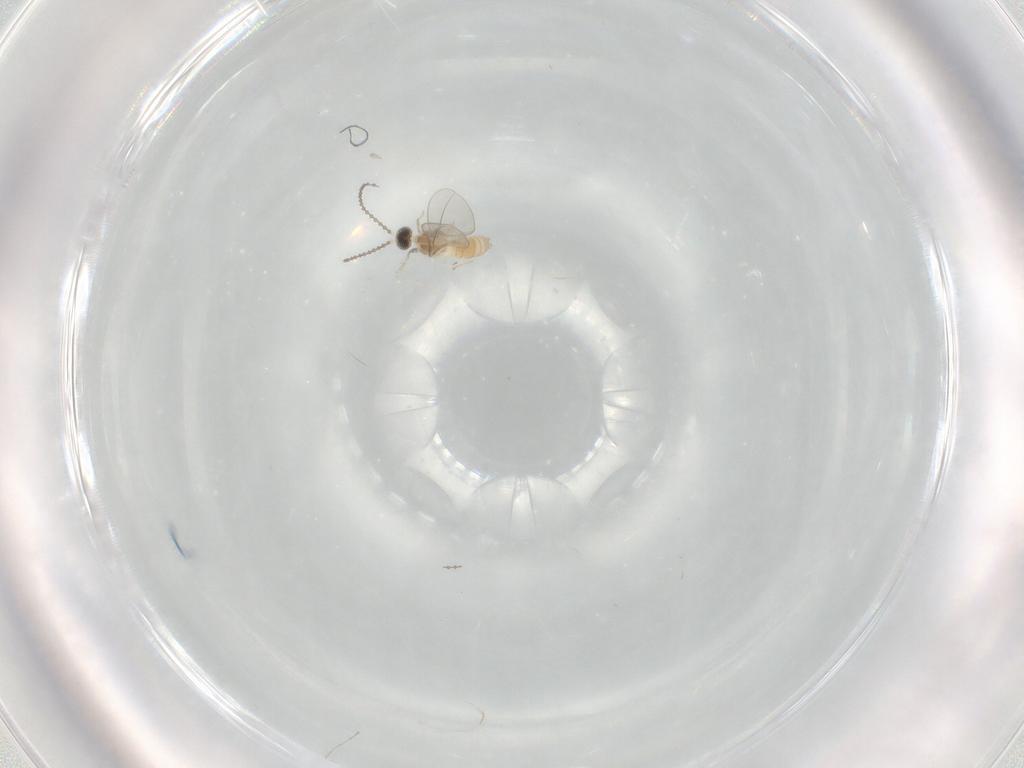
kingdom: Animalia
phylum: Arthropoda
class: Insecta
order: Diptera
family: Cecidomyiidae
